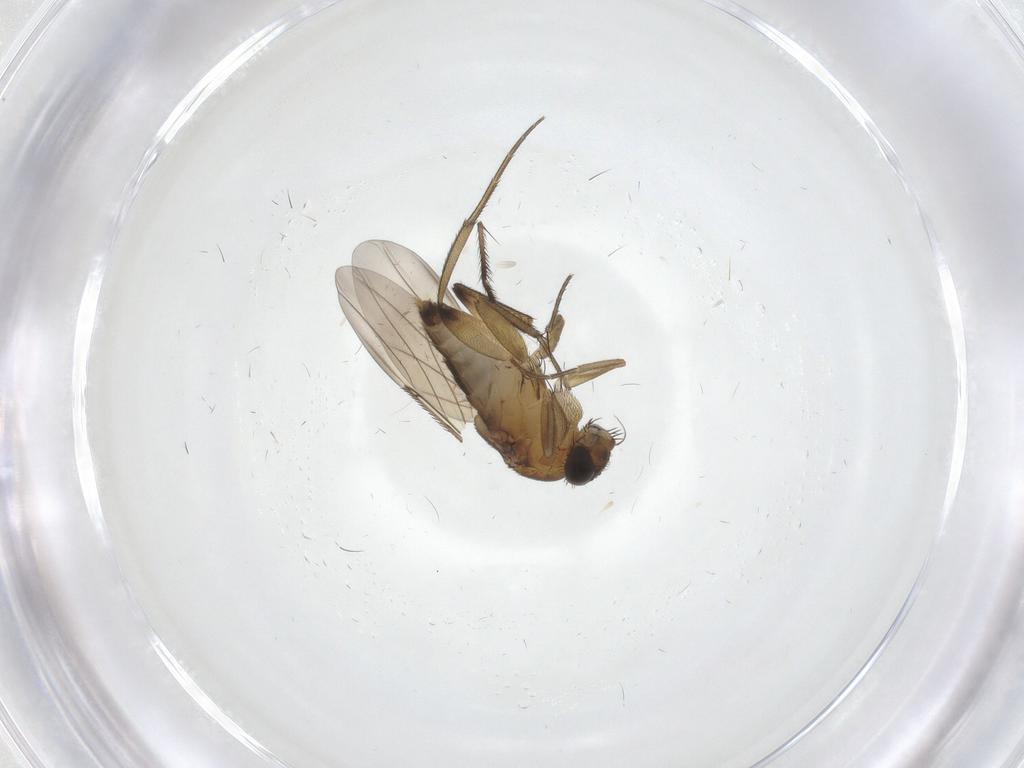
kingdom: Animalia
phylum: Arthropoda
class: Insecta
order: Diptera
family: Phoridae
